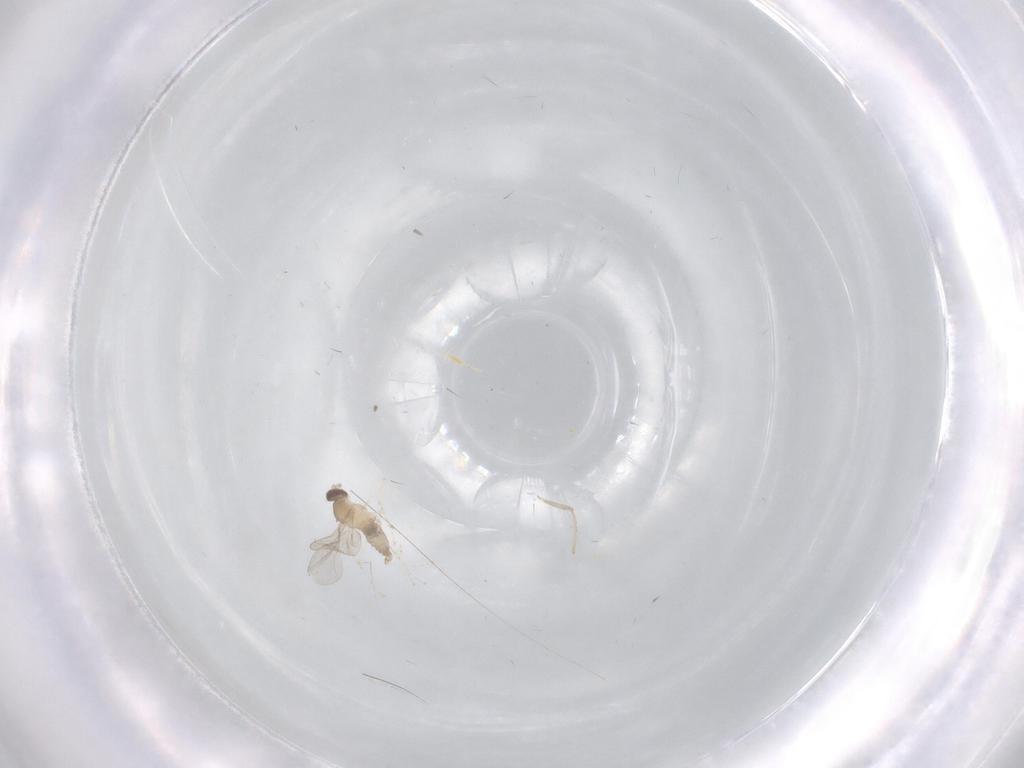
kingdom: Animalia
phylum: Arthropoda
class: Insecta
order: Diptera
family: Cecidomyiidae
